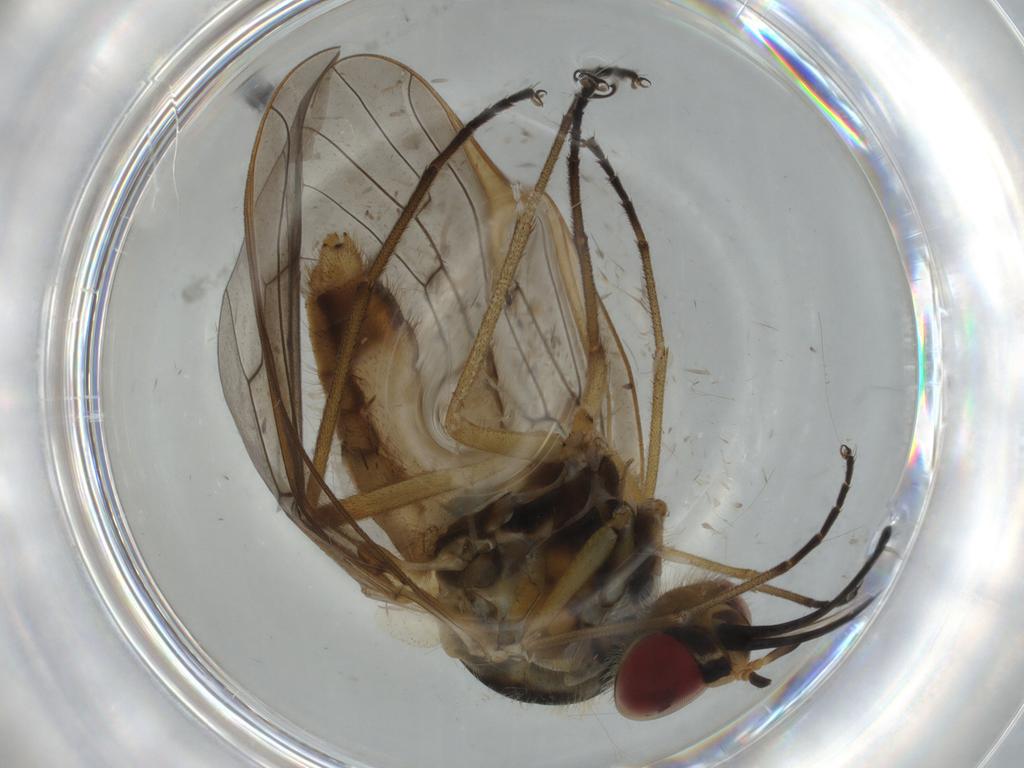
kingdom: Animalia
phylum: Arthropoda
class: Insecta
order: Diptera
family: Bombyliidae
